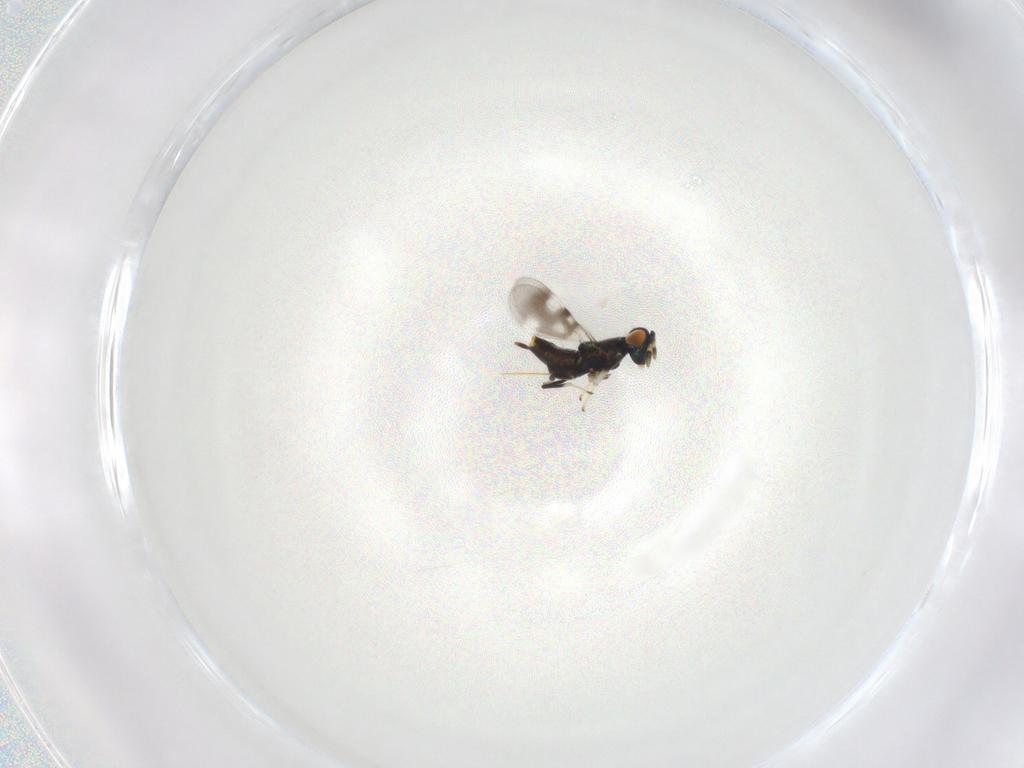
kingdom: Animalia
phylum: Arthropoda
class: Insecta
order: Hymenoptera
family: Encyrtidae
